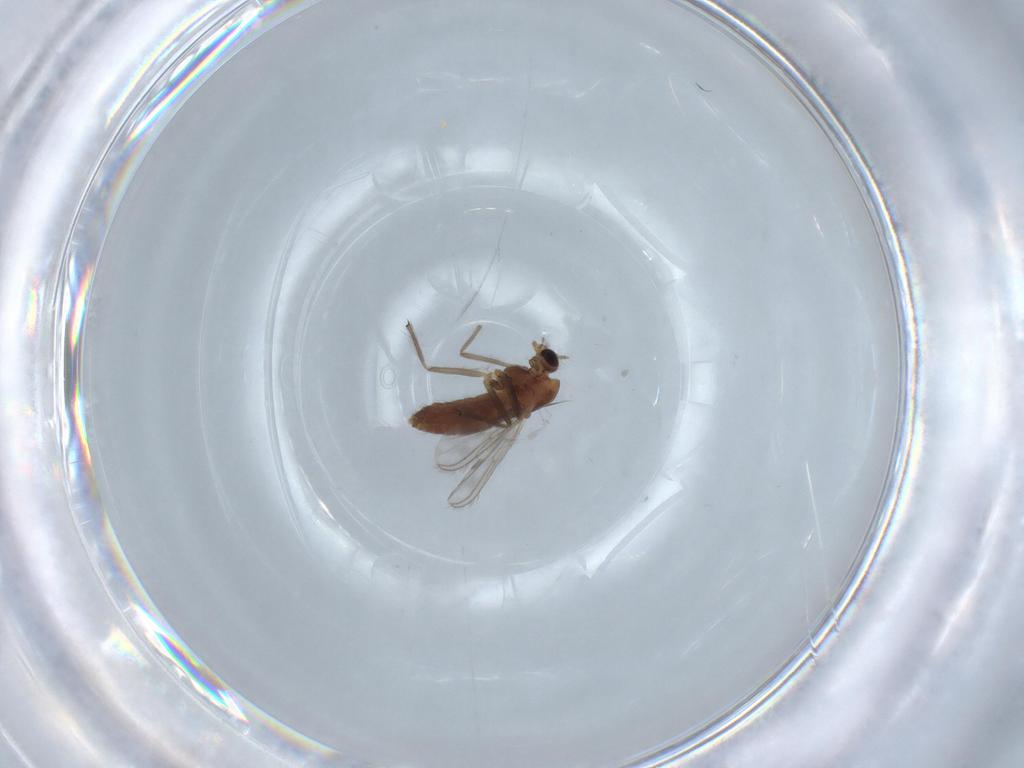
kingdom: Animalia
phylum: Arthropoda
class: Insecta
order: Diptera
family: Chironomidae
